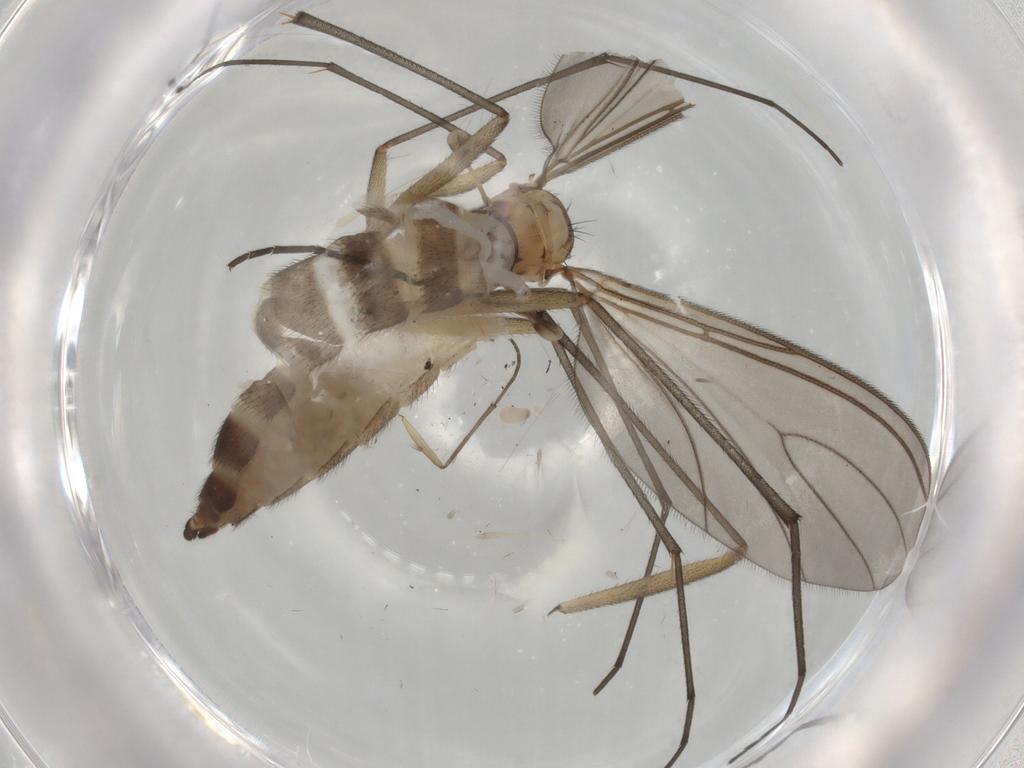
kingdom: Animalia
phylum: Arthropoda
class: Insecta
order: Diptera
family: Sciaridae
